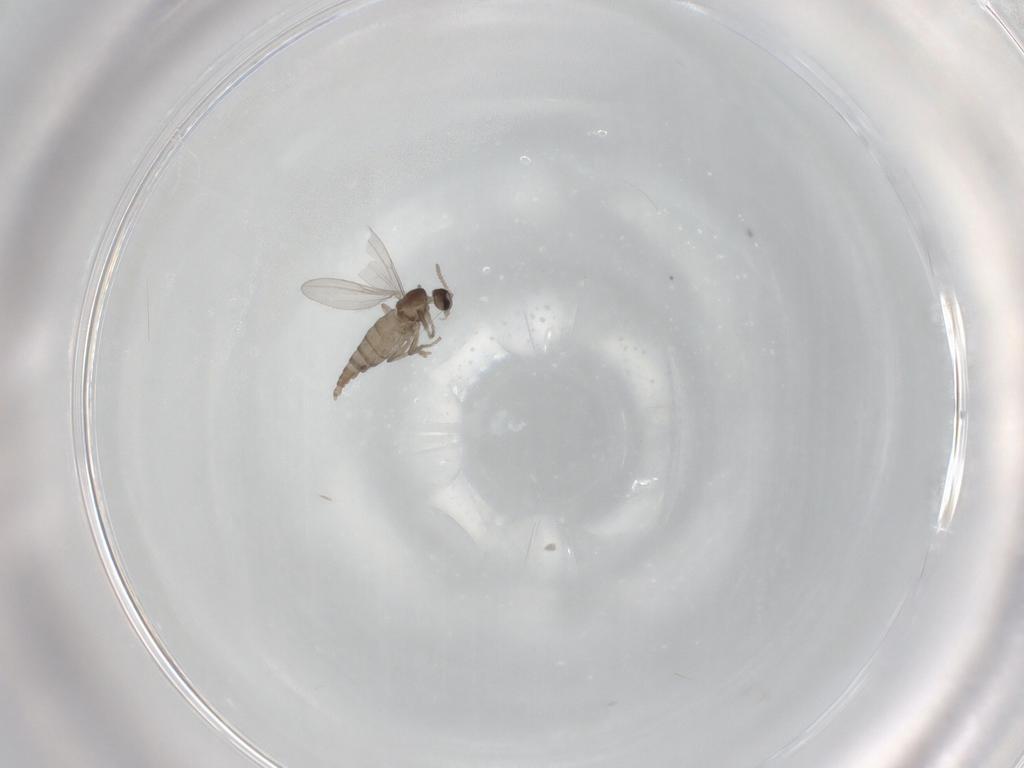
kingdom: Animalia
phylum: Arthropoda
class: Insecta
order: Diptera
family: Cecidomyiidae
